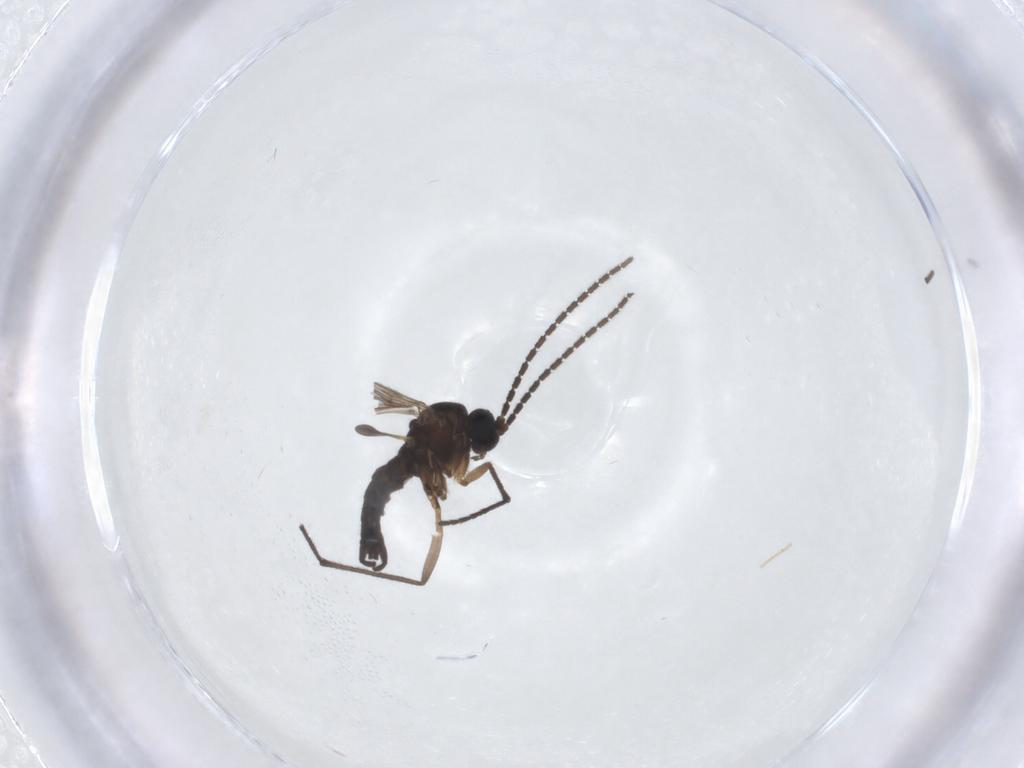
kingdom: Animalia
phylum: Arthropoda
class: Insecta
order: Diptera
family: Sciaridae
